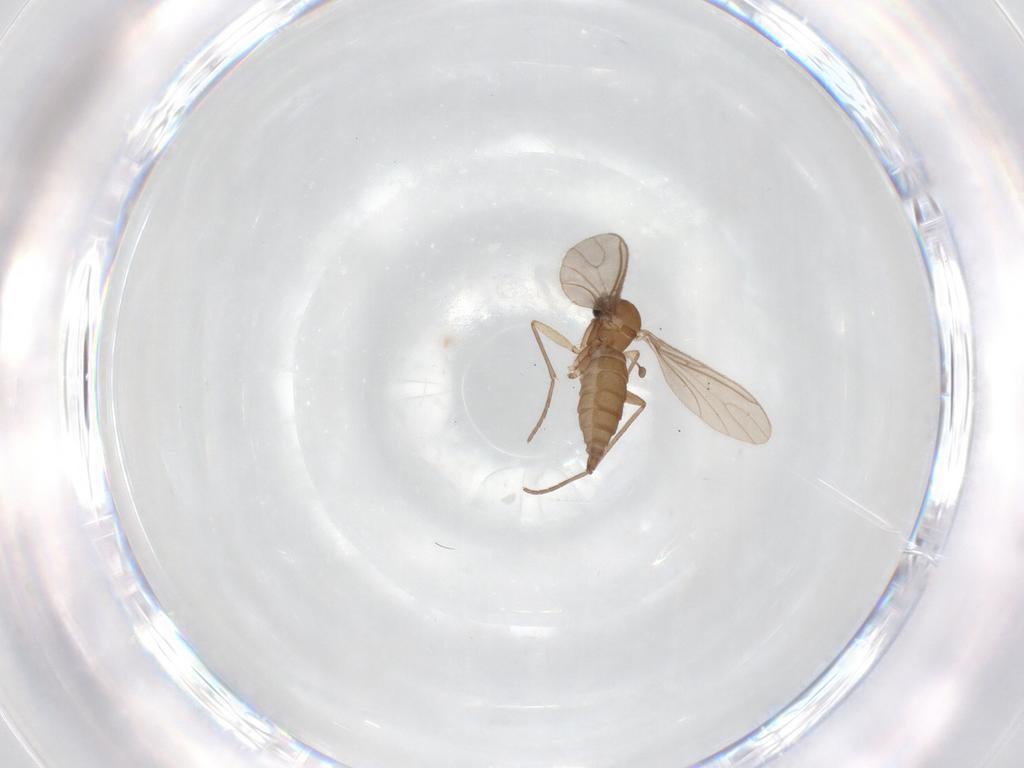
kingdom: Animalia
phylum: Arthropoda
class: Insecta
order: Diptera
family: Sciaridae
